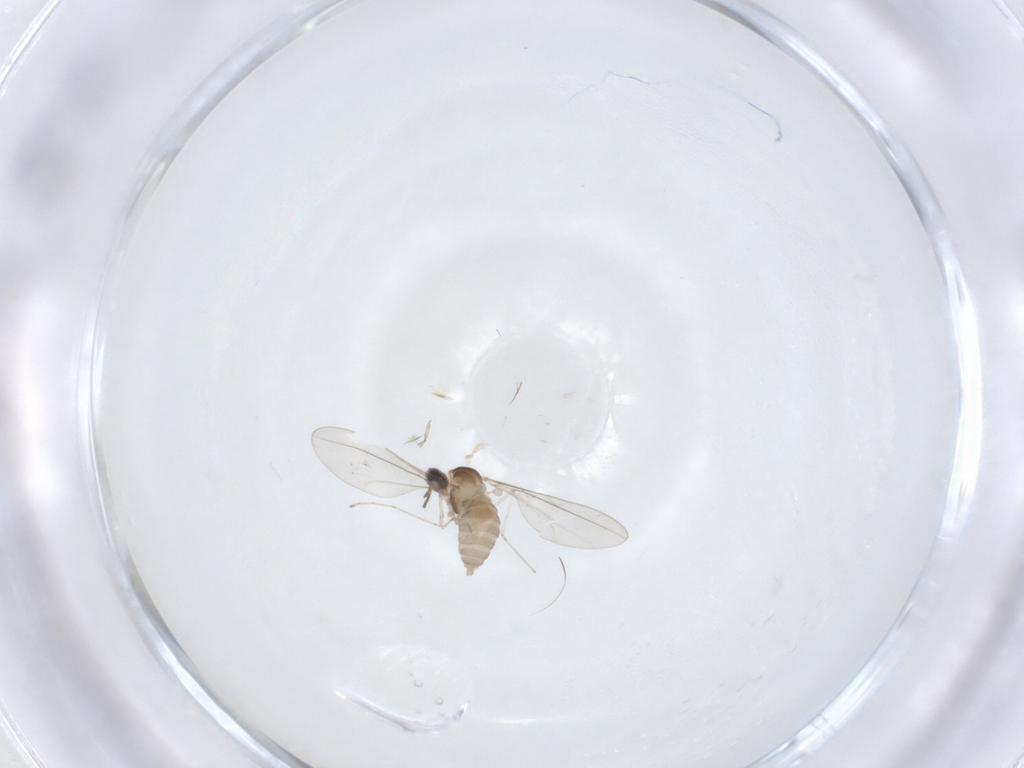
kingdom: Animalia
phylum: Arthropoda
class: Insecta
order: Diptera
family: Cecidomyiidae
